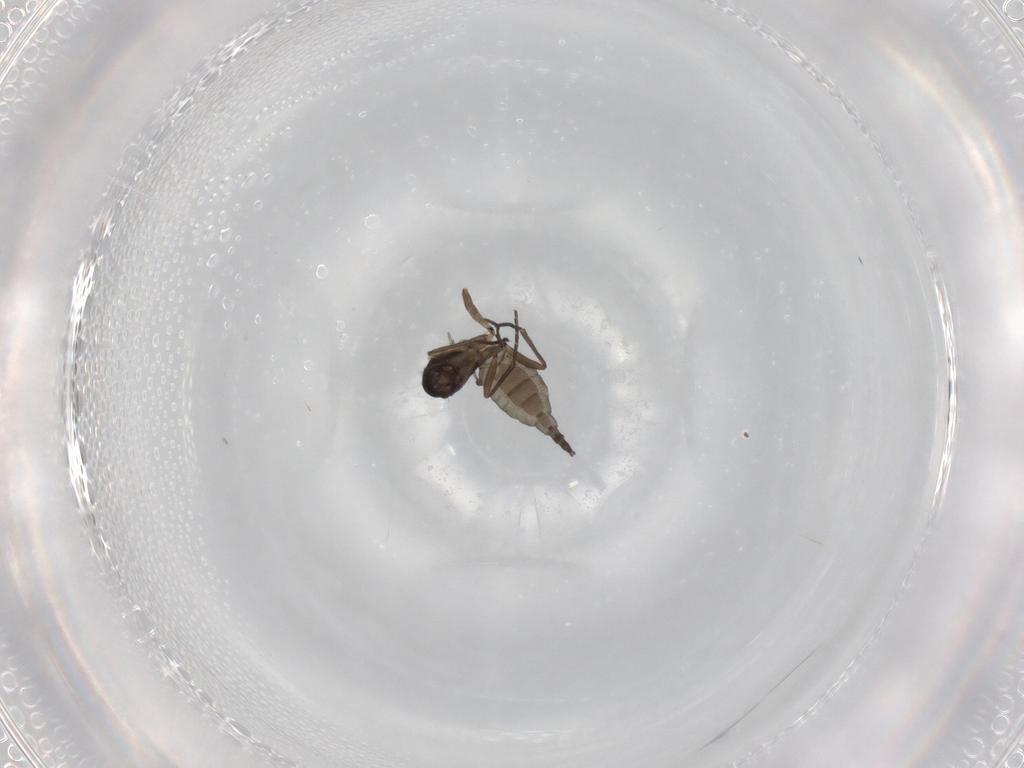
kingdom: Animalia
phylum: Arthropoda
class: Insecta
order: Diptera
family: Sciaridae
